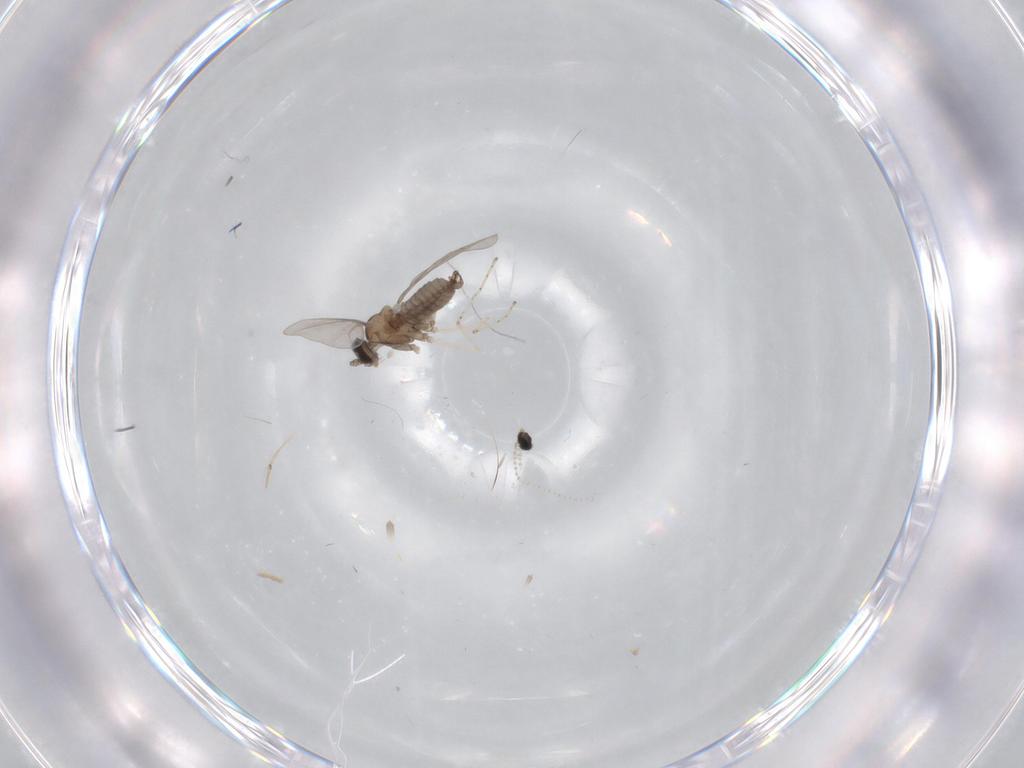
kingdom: Animalia
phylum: Arthropoda
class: Insecta
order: Diptera
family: Cecidomyiidae
